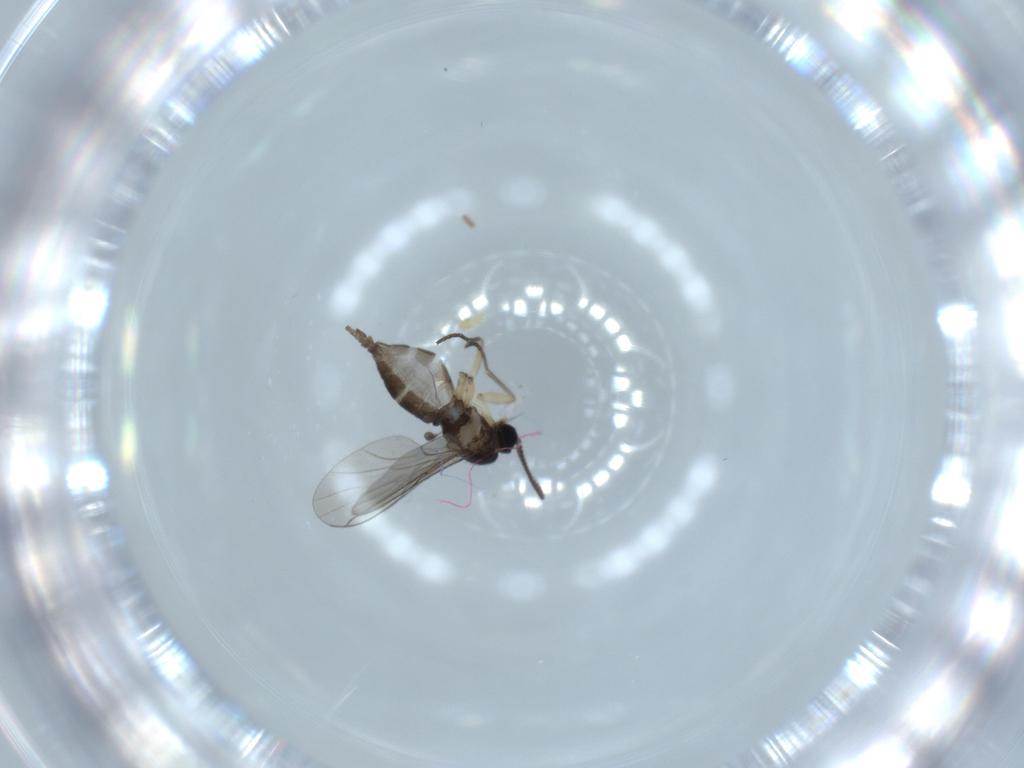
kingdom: Animalia
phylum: Arthropoda
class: Insecta
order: Diptera
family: Sciaridae
